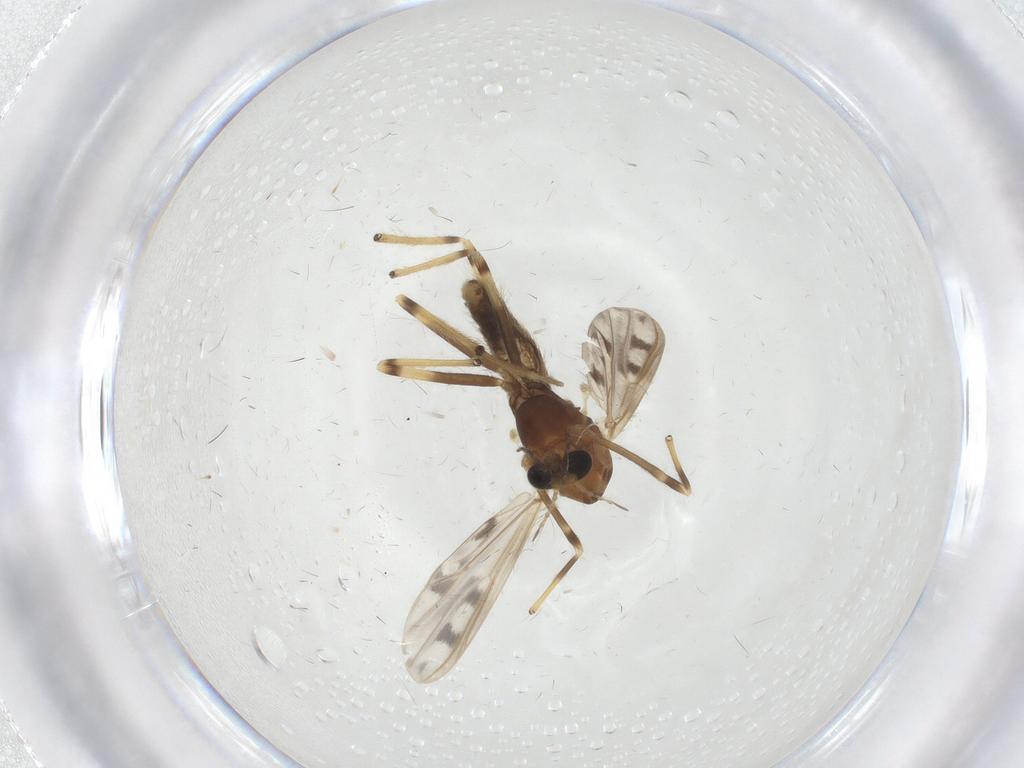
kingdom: Animalia
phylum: Arthropoda
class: Insecta
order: Diptera
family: Chironomidae
